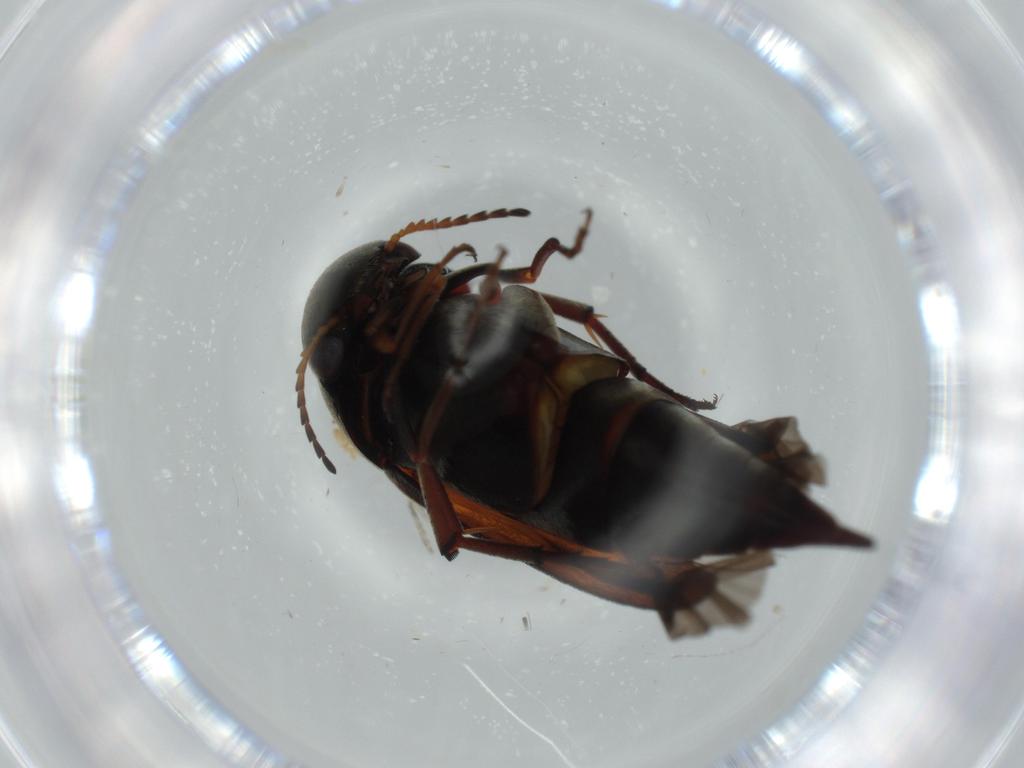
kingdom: Animalia
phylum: Arthropoda
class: Insecta
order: Coleoptera
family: Mordellidae
